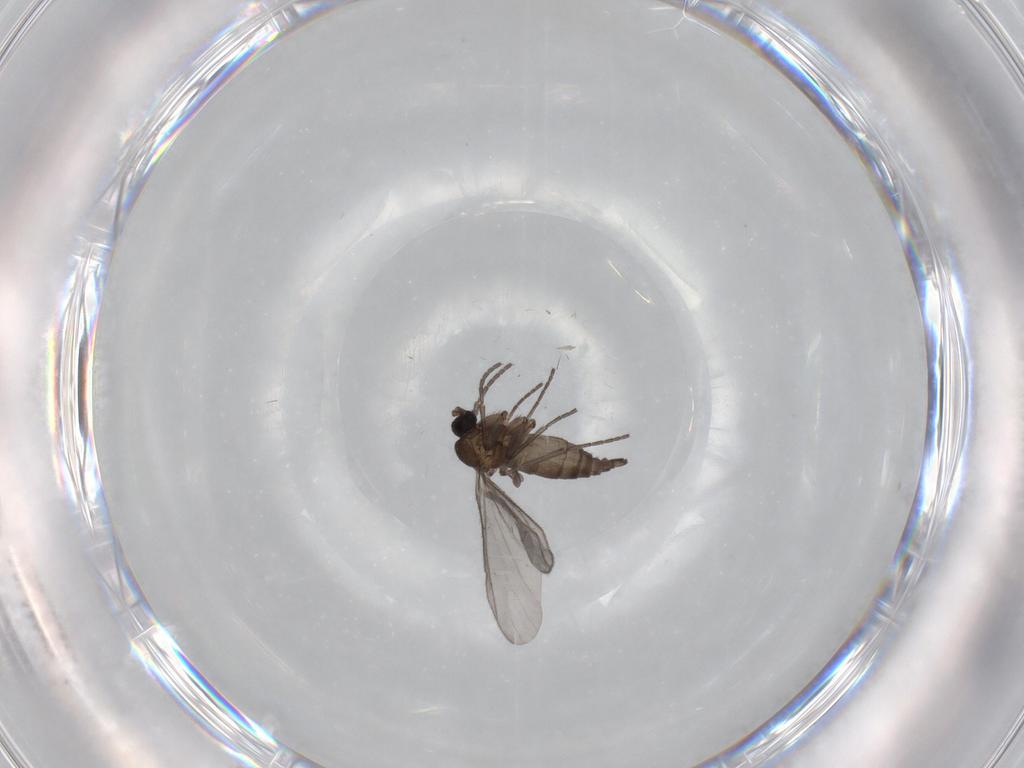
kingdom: Animalia
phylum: Arthropoda
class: Insecta
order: Diptera
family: Sciaridae
